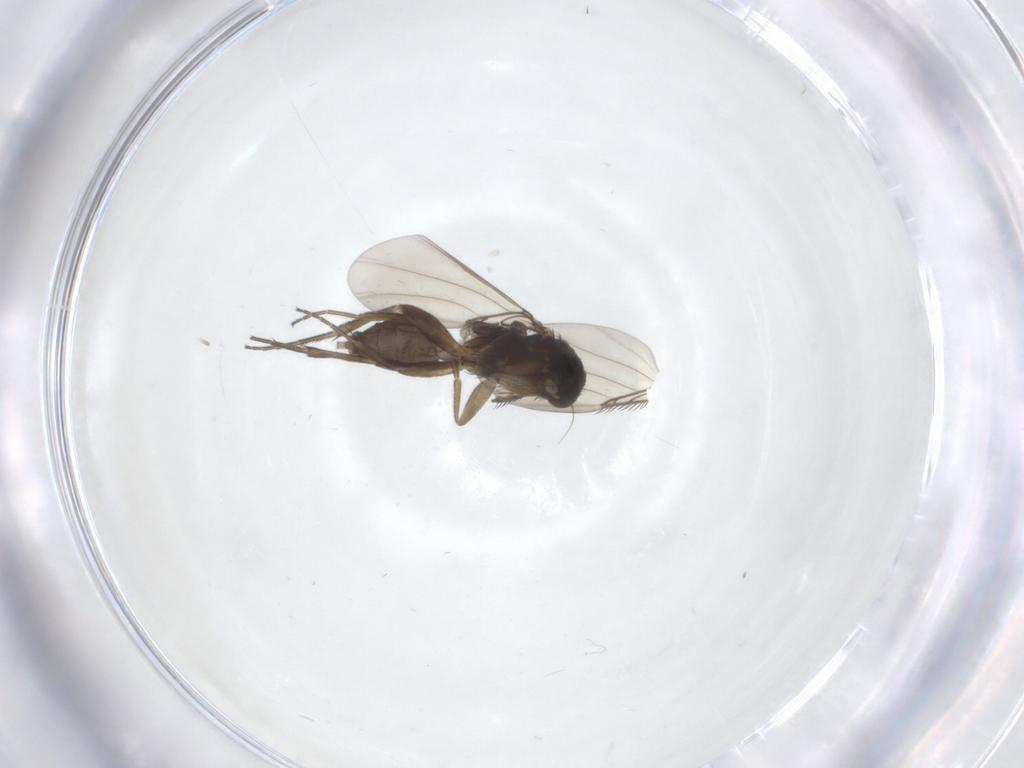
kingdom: Animalia
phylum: Arthropoda
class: Insecta
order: Diptera
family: Phoridae
